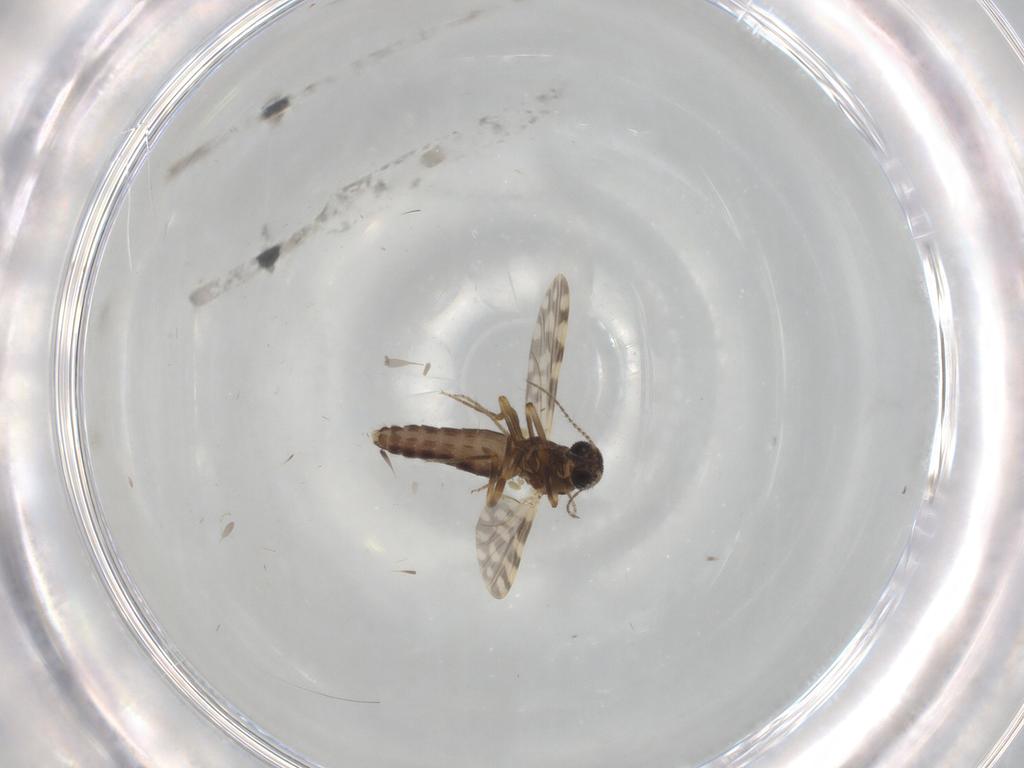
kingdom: Animalia
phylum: Arthropoda
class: Insecta
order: Diptera
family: Ceratopogonidae
